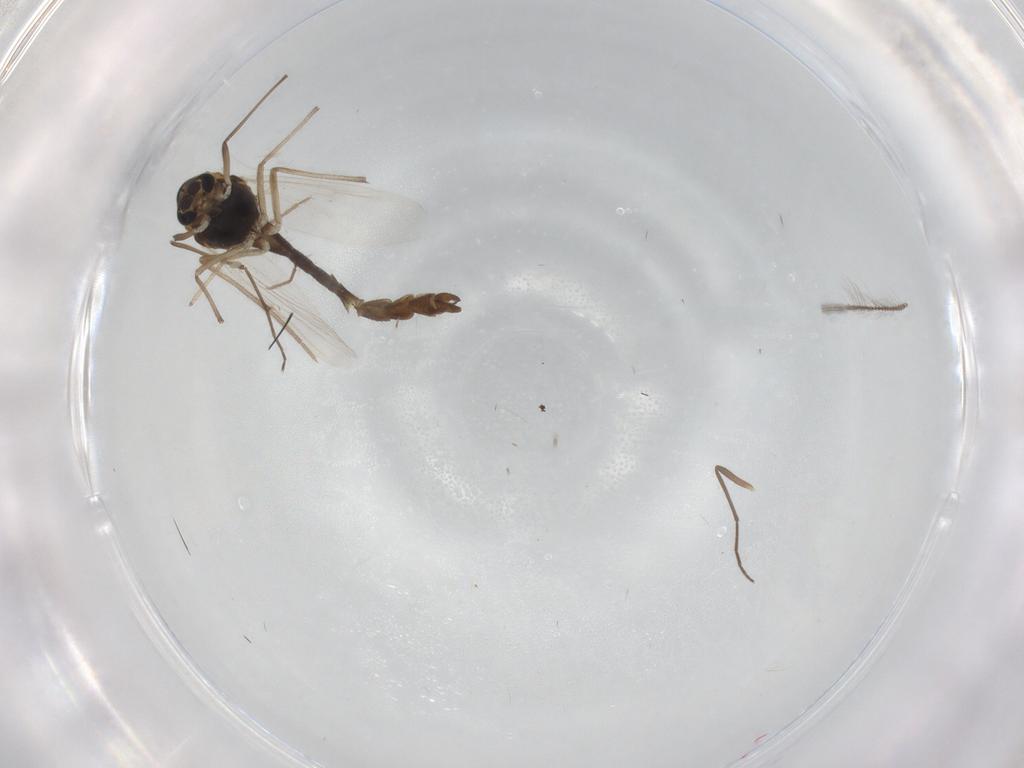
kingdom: Animalia
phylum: Arthropoda
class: Insecta
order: Diptera
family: Chironomidae
